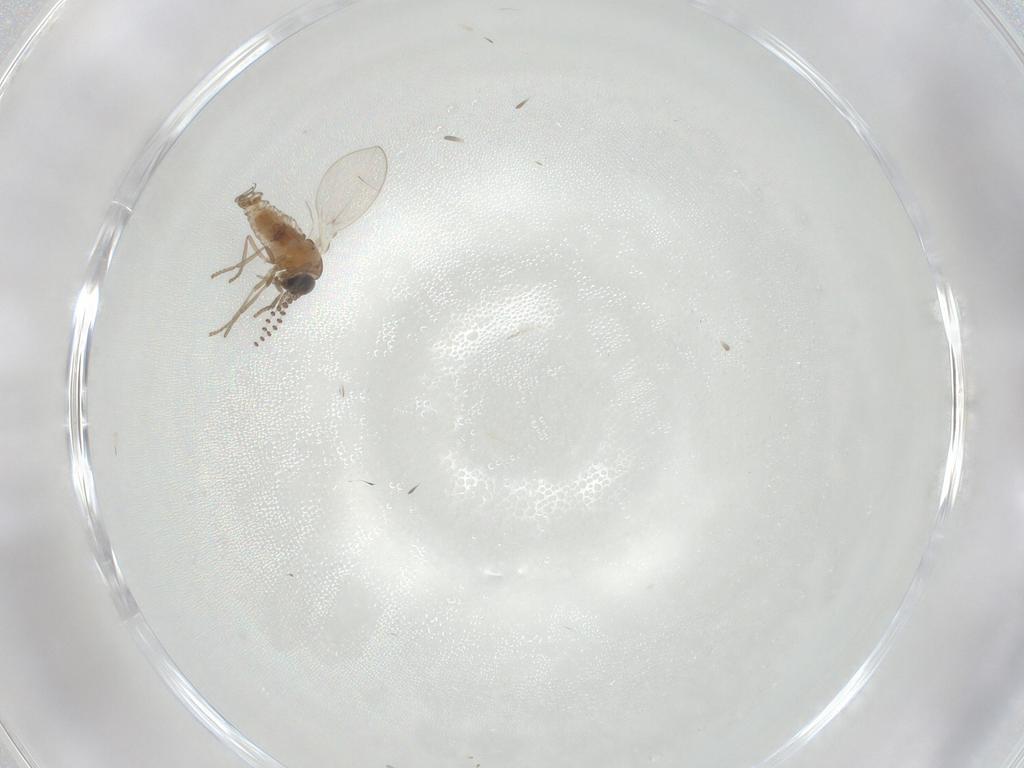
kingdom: Animalia
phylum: Arthropoda
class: Insecta
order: Diptera
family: Psychodidae
